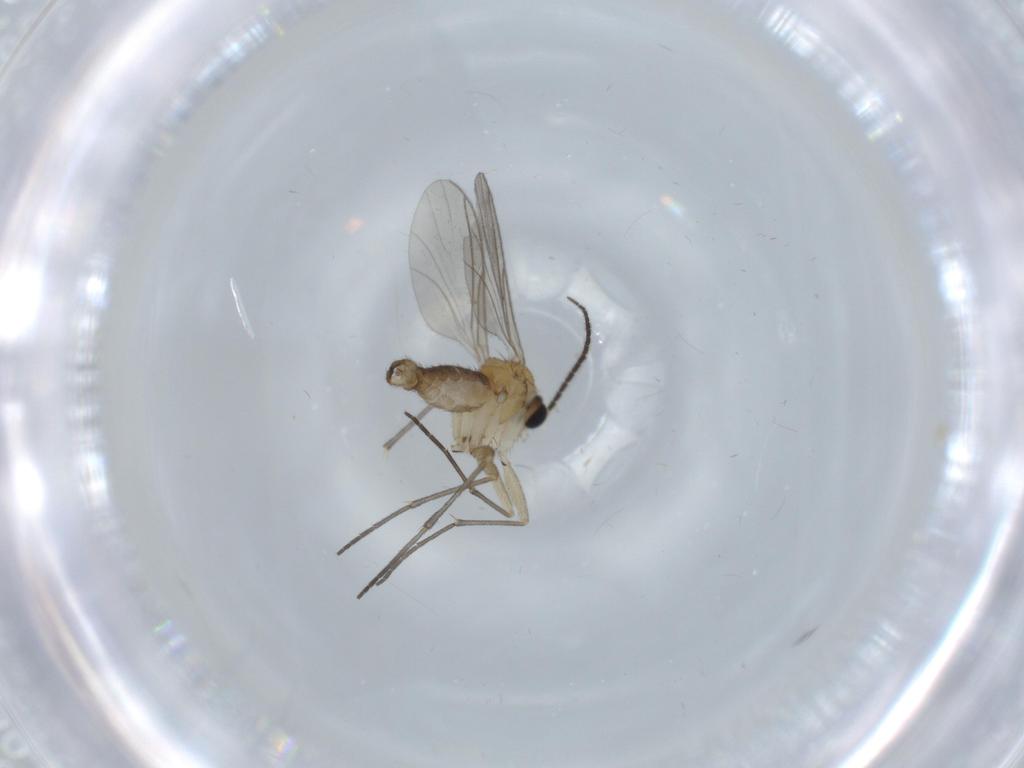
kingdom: Animalia
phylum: Arthropoda
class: Insecta
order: Diptera
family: Sciaridae
